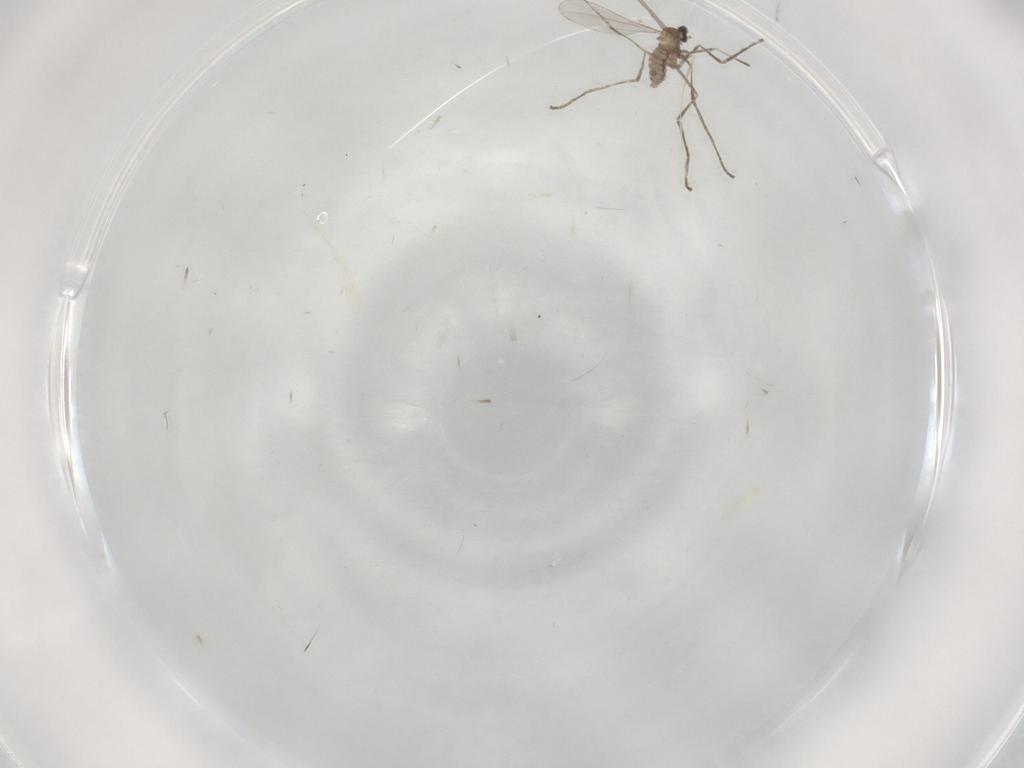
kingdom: Animalia
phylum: Arthropoda
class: Insecta
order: Diptera
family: Cecidomyiidae
